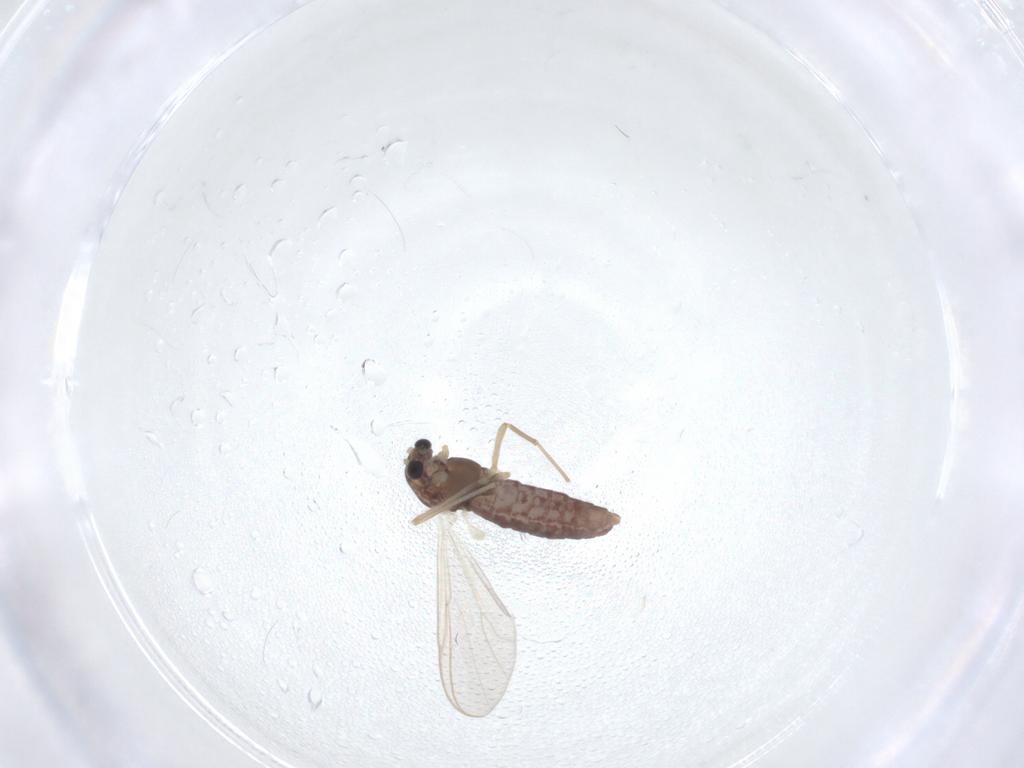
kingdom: Animalia
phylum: Arthropoda
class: Insecta
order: Diptera
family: Chironomidae
